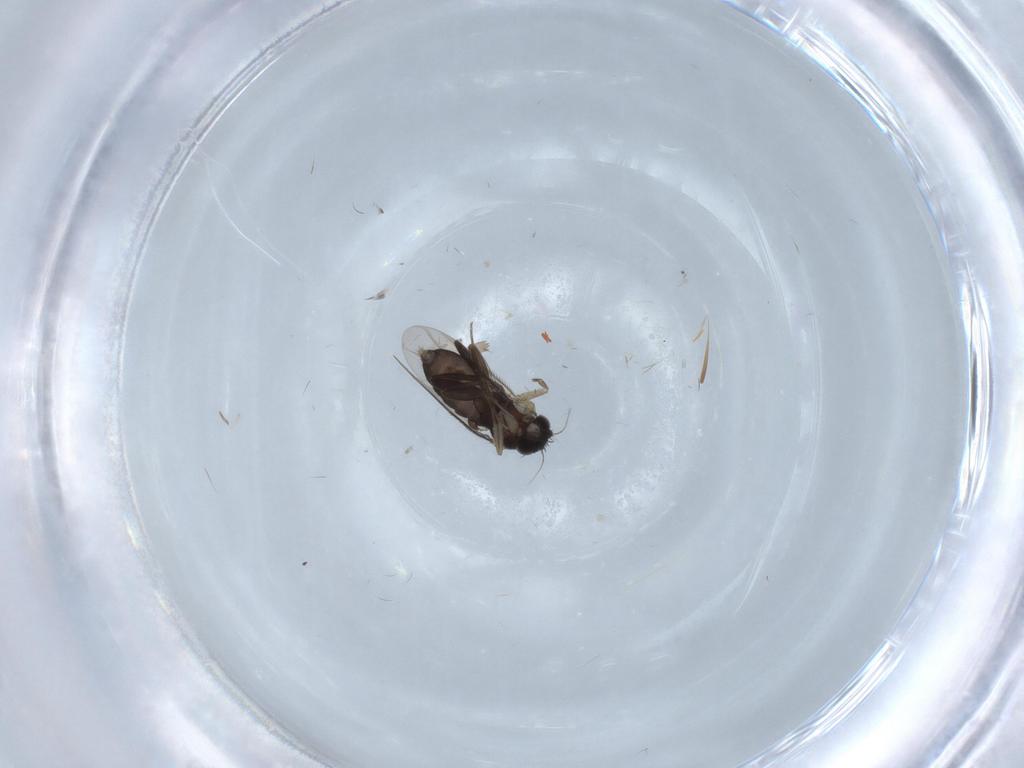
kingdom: Animalia
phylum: Arthropoda
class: Insecta
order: Diptera
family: Phoridae
